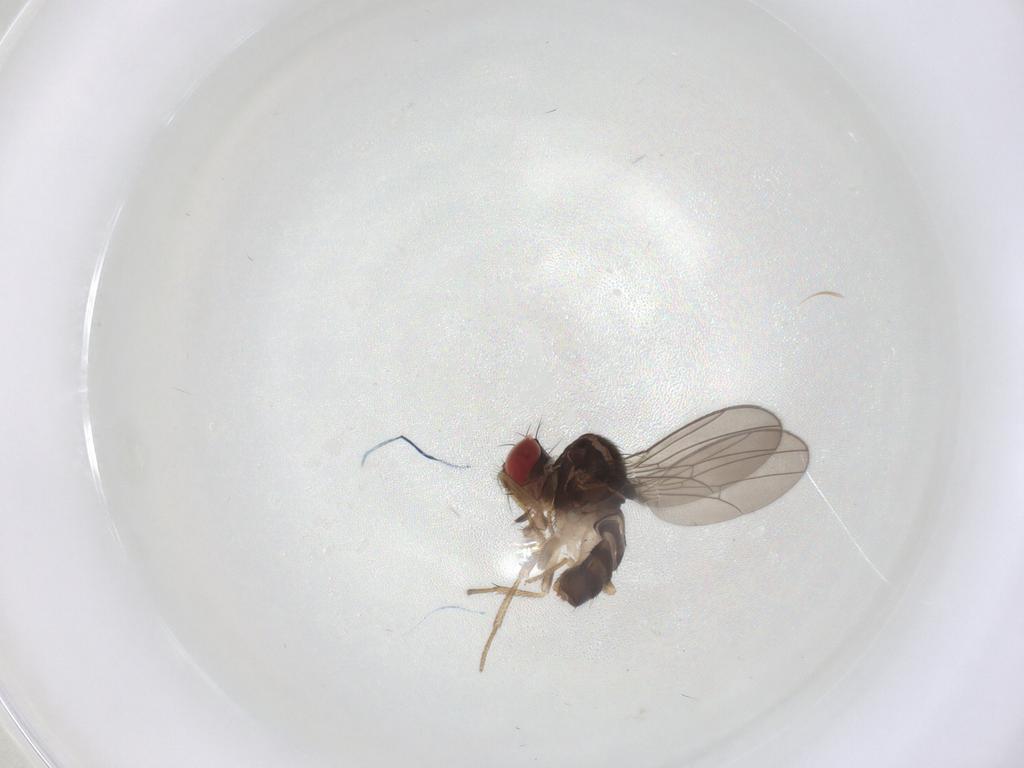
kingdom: Animalia
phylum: Arthropoda
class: Insecta
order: Diptera
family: Drosophilidae
